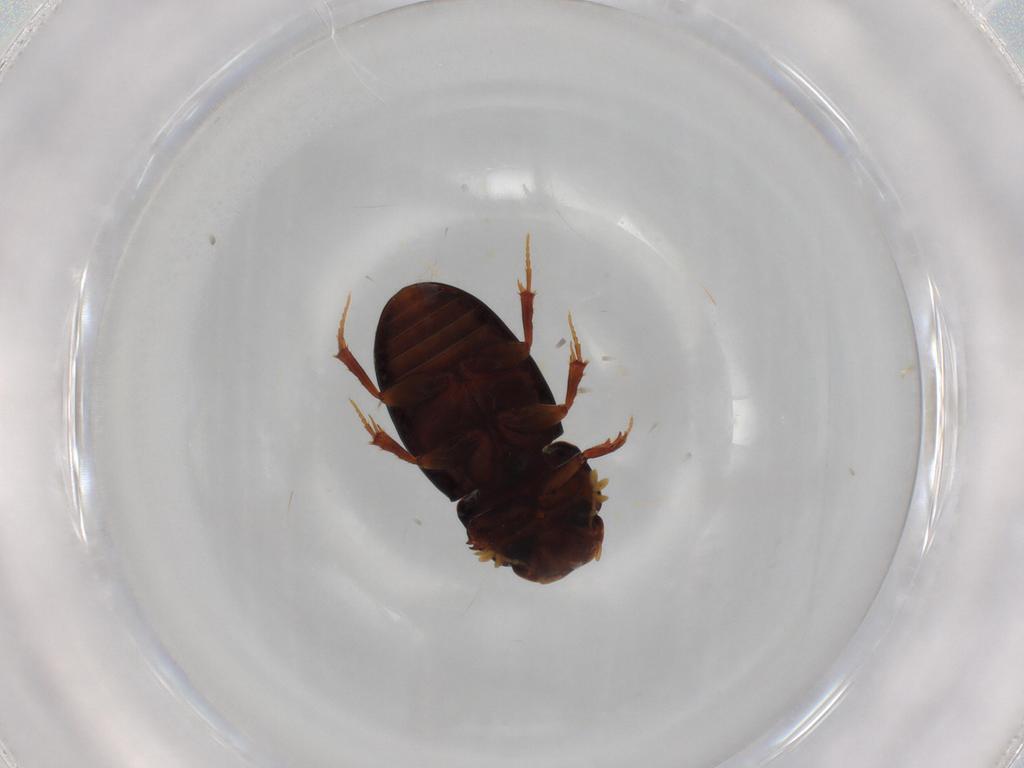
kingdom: Animalia
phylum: Arthropoda
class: Insecta
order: Coleoptera
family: Scarabaeidae
